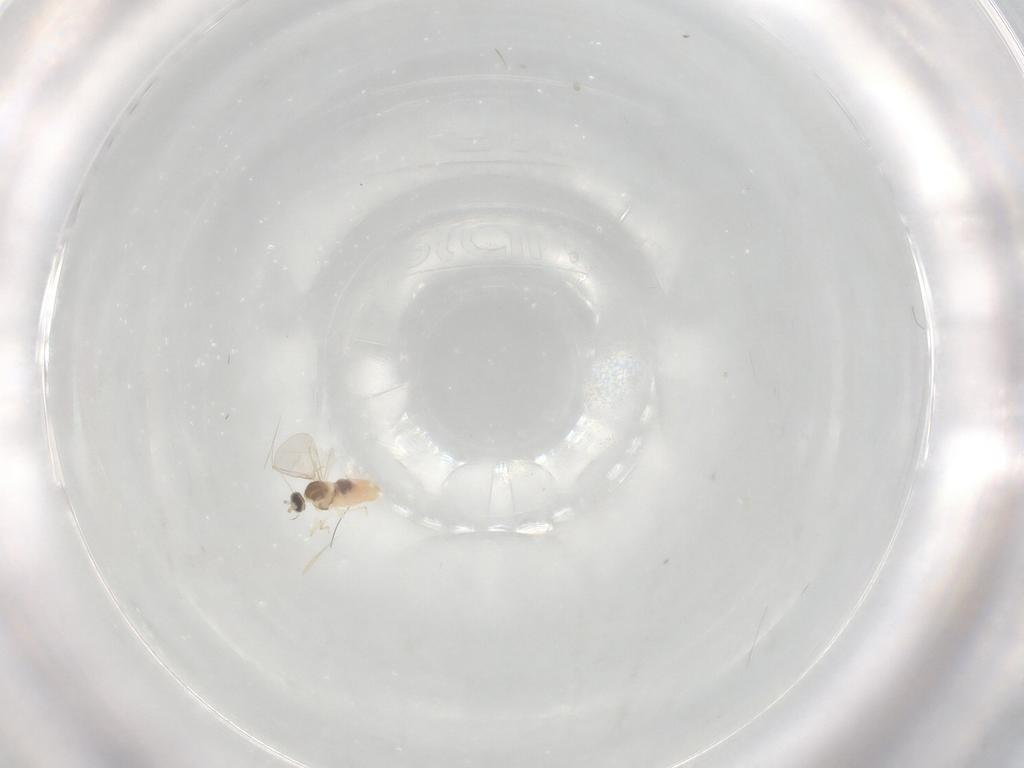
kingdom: Animalia
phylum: Arthropoda
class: Insecta
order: Diptera
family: Cecidomyiidae
